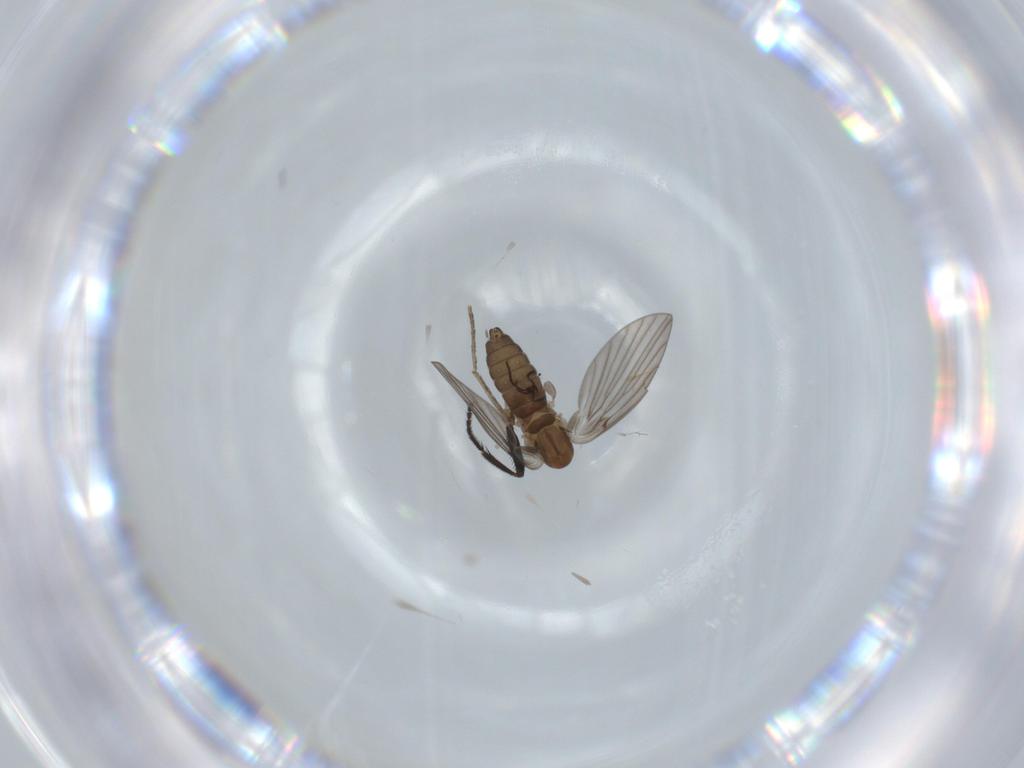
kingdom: Animalia
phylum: Arthropoda
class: Insecta
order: Diptera
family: Psychodidae
